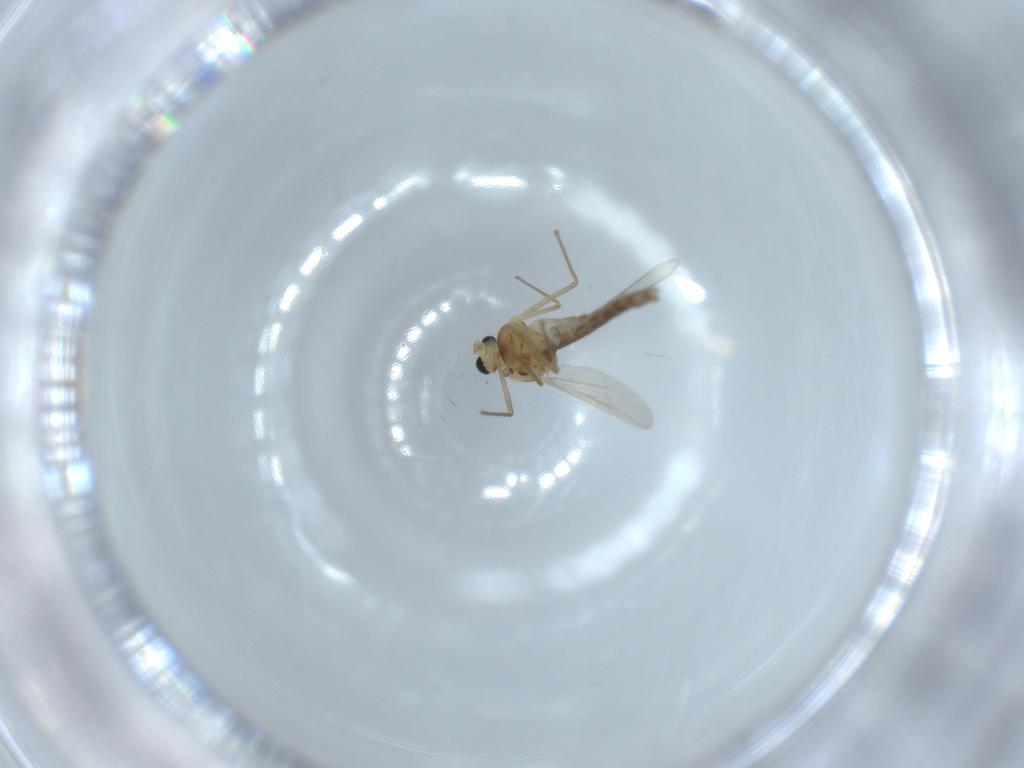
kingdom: Animalia
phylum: Arthropoda
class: Insecta
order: Diptera
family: Chironomidae
